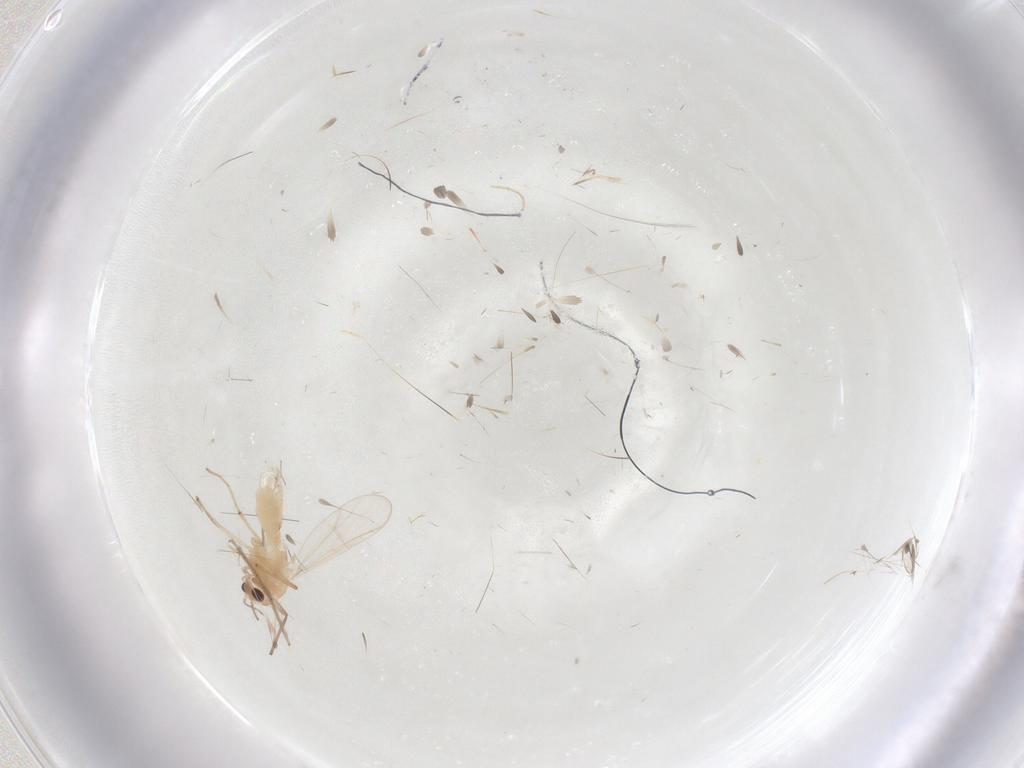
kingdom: Animalia
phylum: Arthropoda
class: Insecta
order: Diptera
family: Chironomidae
